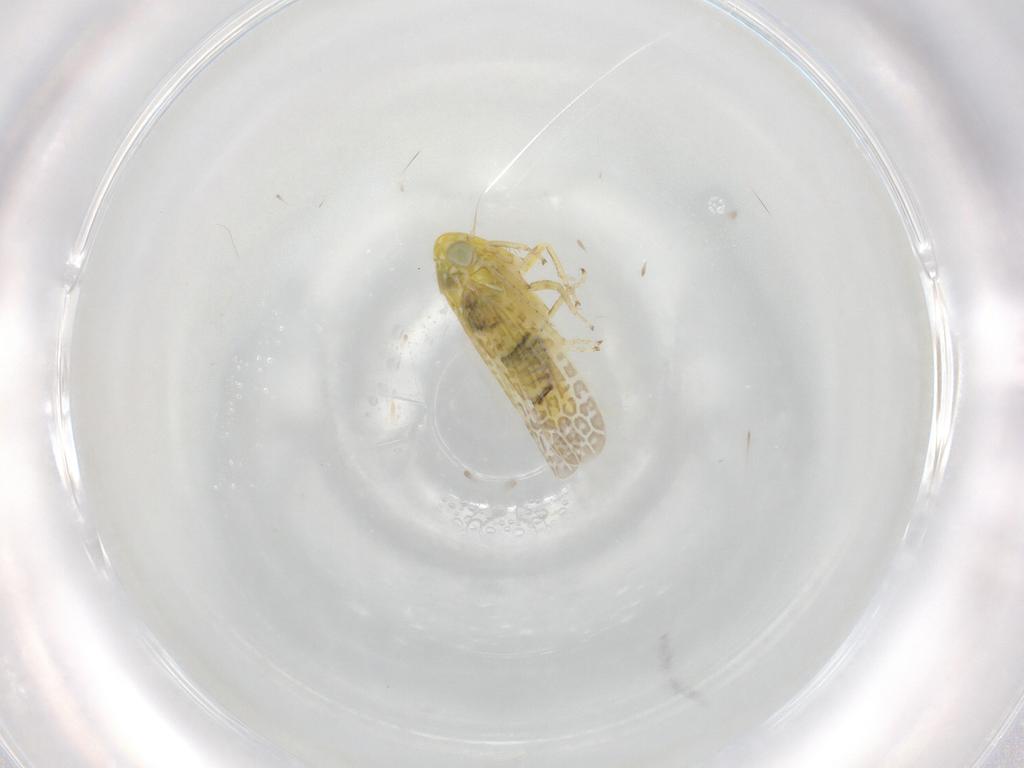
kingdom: Animalia
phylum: Arthropoda
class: Insecta
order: Hemiptera
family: Cicadellidae
